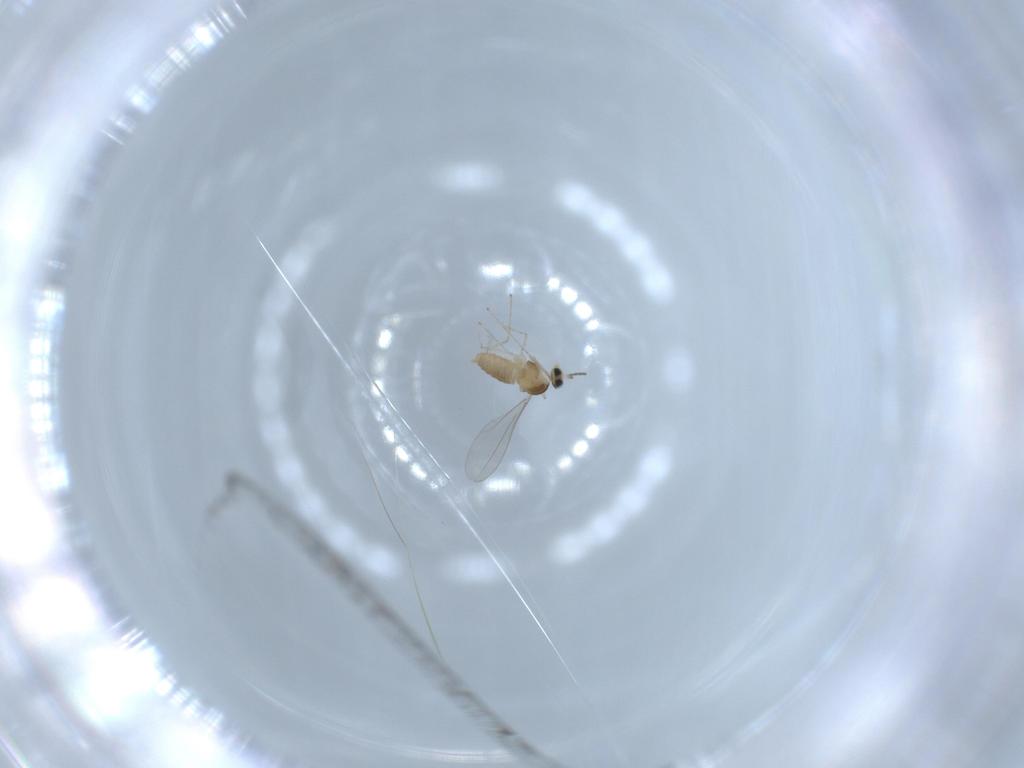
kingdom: Animalia
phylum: Arthropoda
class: Insecta
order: Diptera
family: Cecidomyiidae
